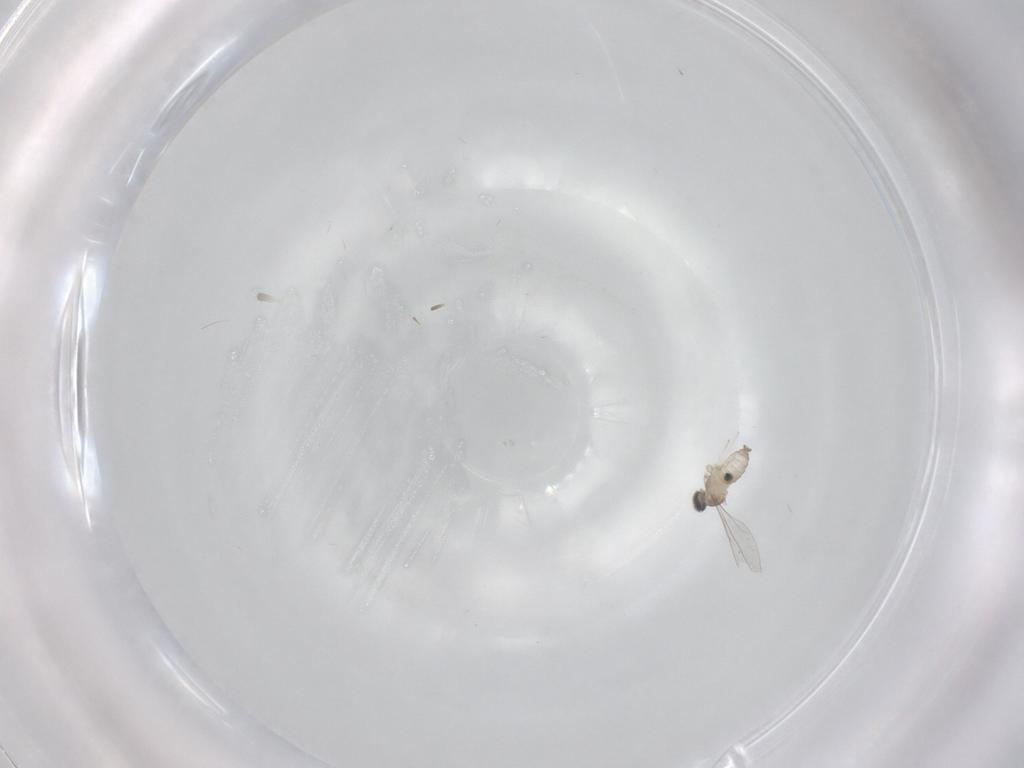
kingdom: Animalia
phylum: Arthropoda
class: Insecta
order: Diptera
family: Cecidomyiidae
